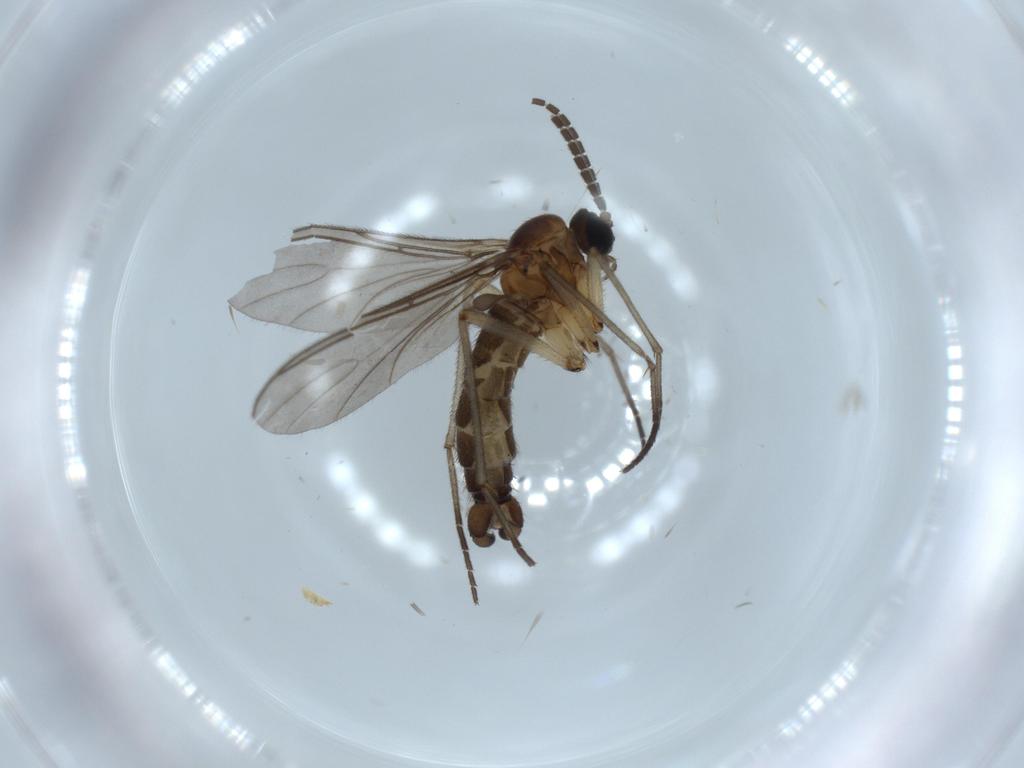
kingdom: Animalia
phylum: Arthropoda
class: Insecta
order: Diptera
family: Sciaridae
